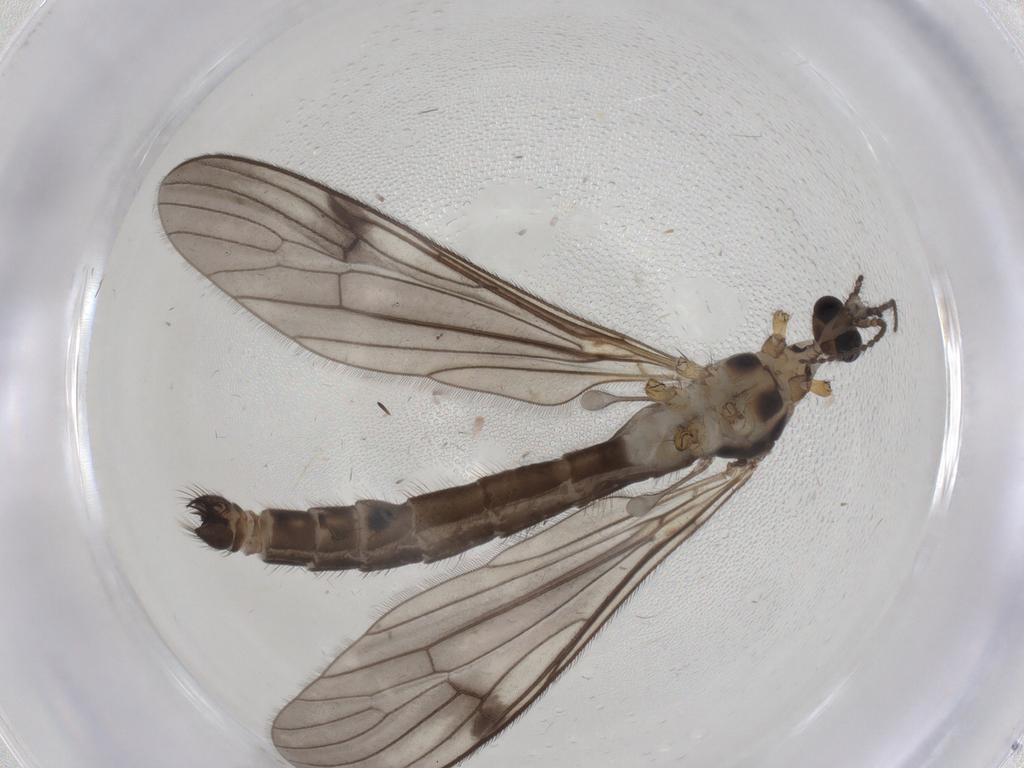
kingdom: Animalia
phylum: Arthropoda
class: Insecta
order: Diptera
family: Limoniidae
